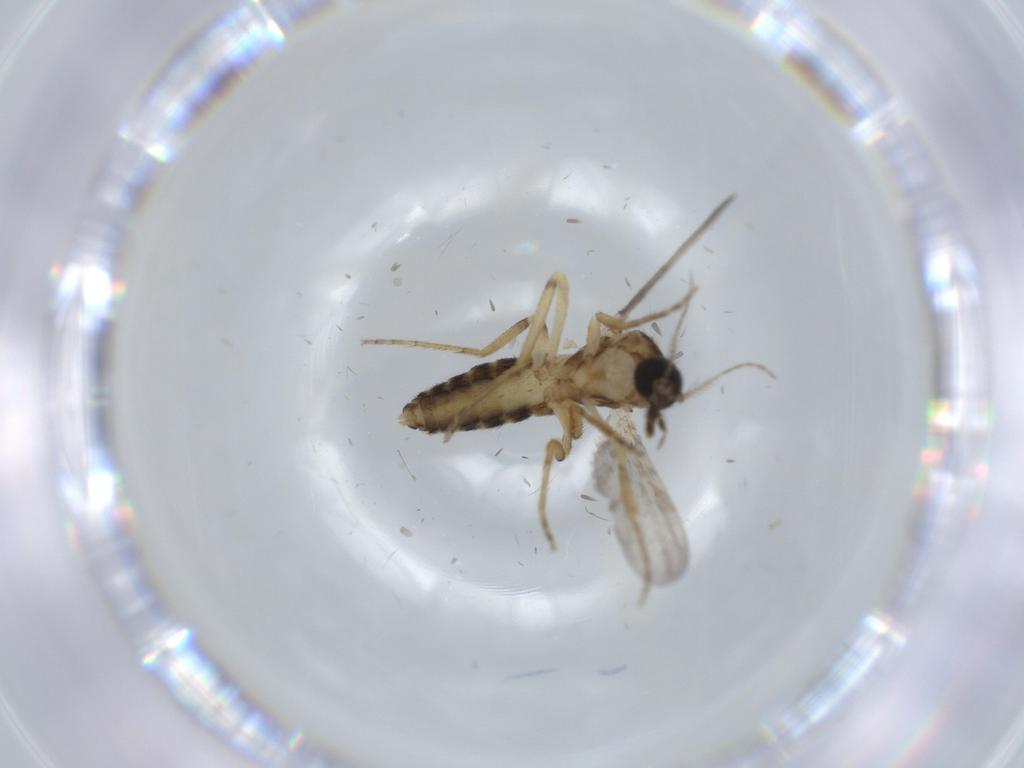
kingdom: Animalia
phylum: Arthropoda
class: Insecta
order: Diptera
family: Ceratopogonidae
